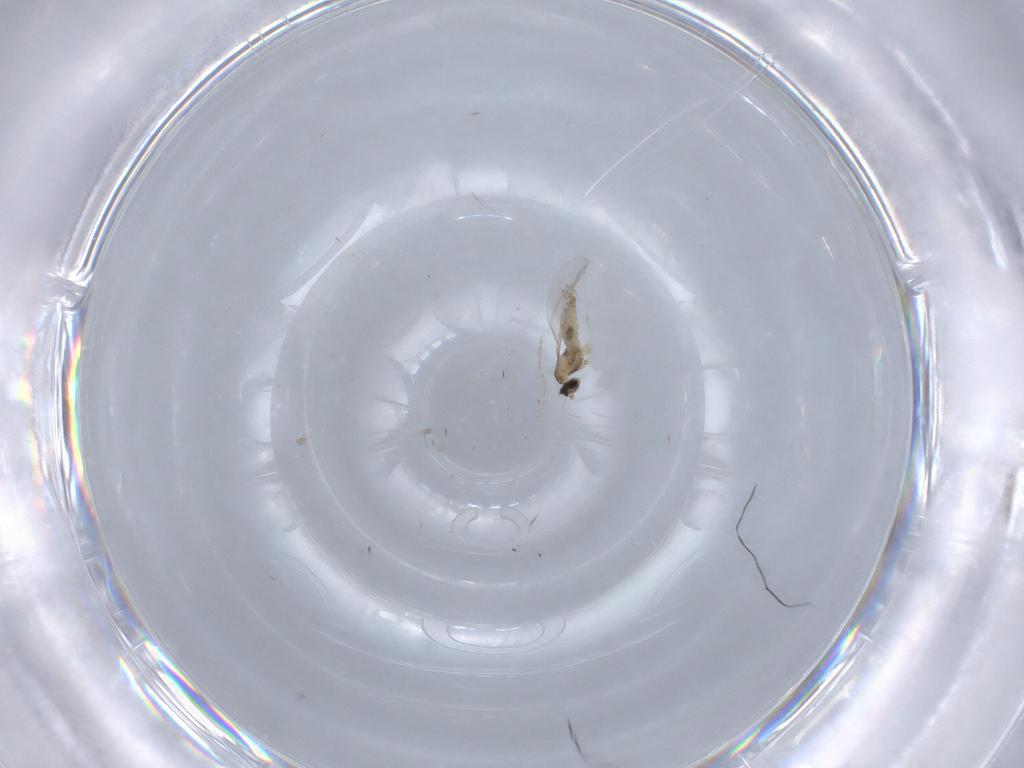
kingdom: Animalia
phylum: Arthropoda
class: Insecta
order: Diptera
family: Cecidomyiidae
